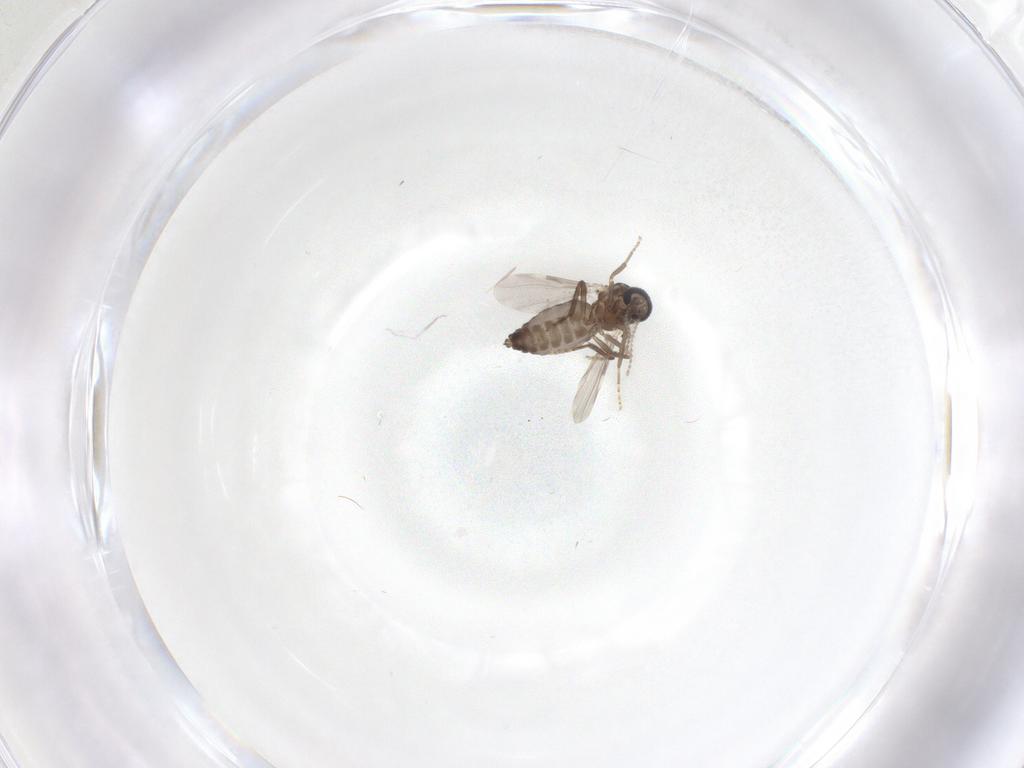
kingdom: Animalia
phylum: Arthropoda
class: Insecta
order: Diptera
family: Ceratopogonidae
